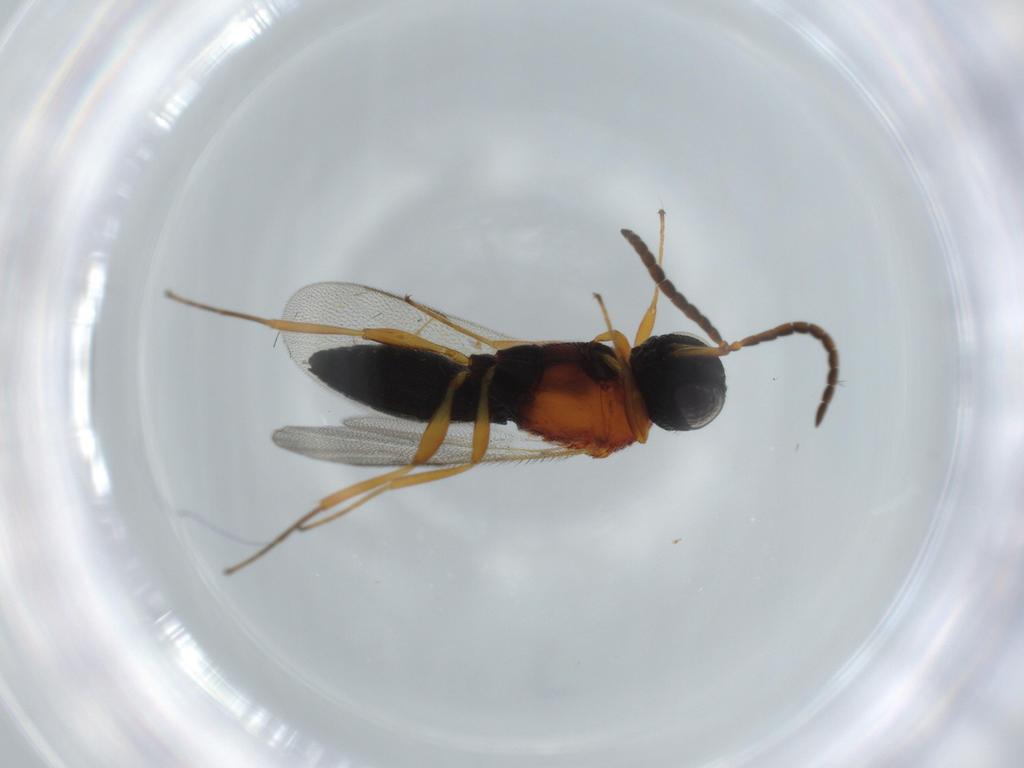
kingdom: Animalia
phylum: Arthropoda
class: Insecta
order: Hymenoptera
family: Scelionidae
